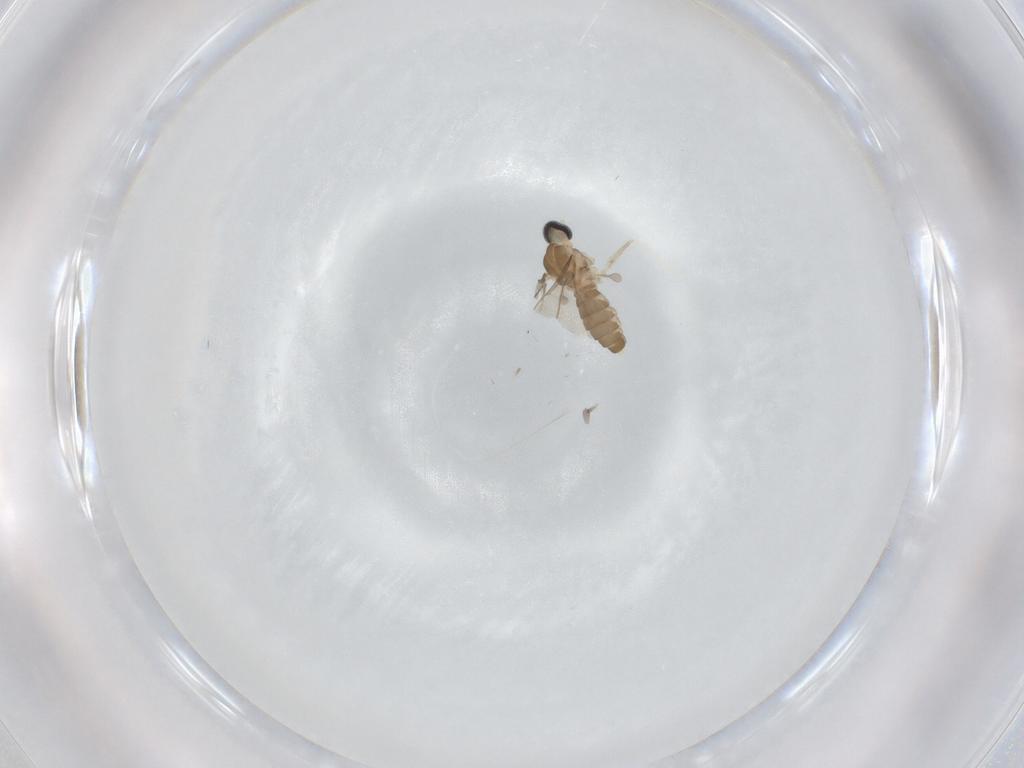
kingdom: Animalia
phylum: Arthropoda
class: Insecta
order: Diptera
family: Cecidomyiidae
